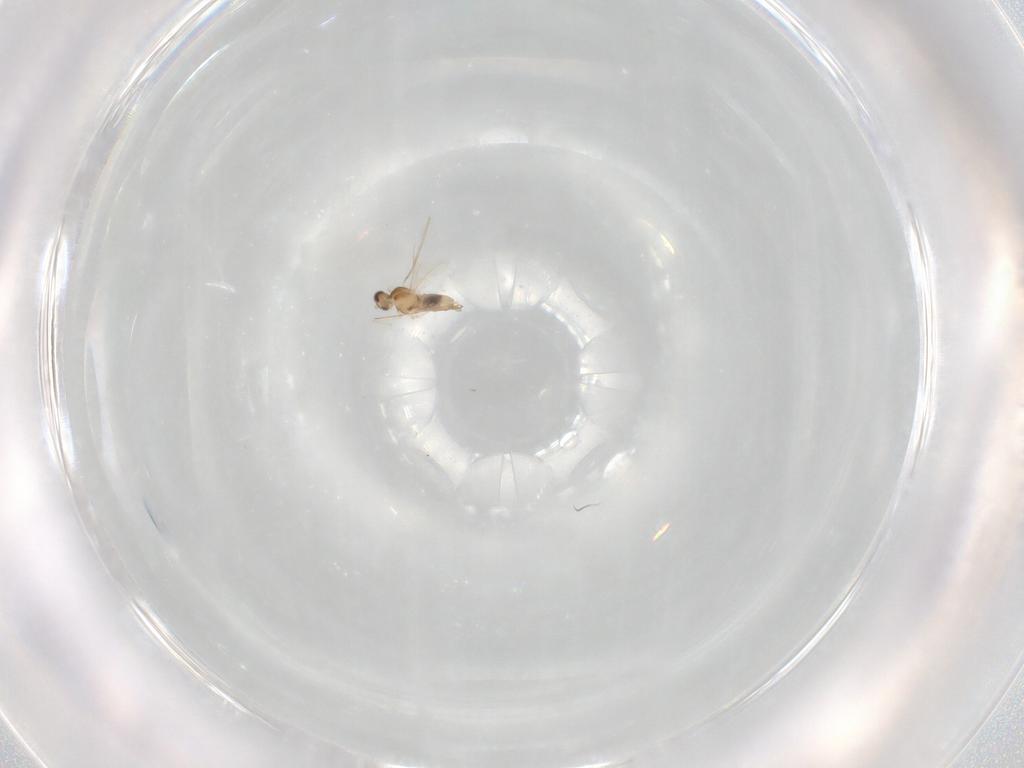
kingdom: Animalia
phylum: Arthropoda
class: Insecta
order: Diptera
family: Cecidomyiidae
